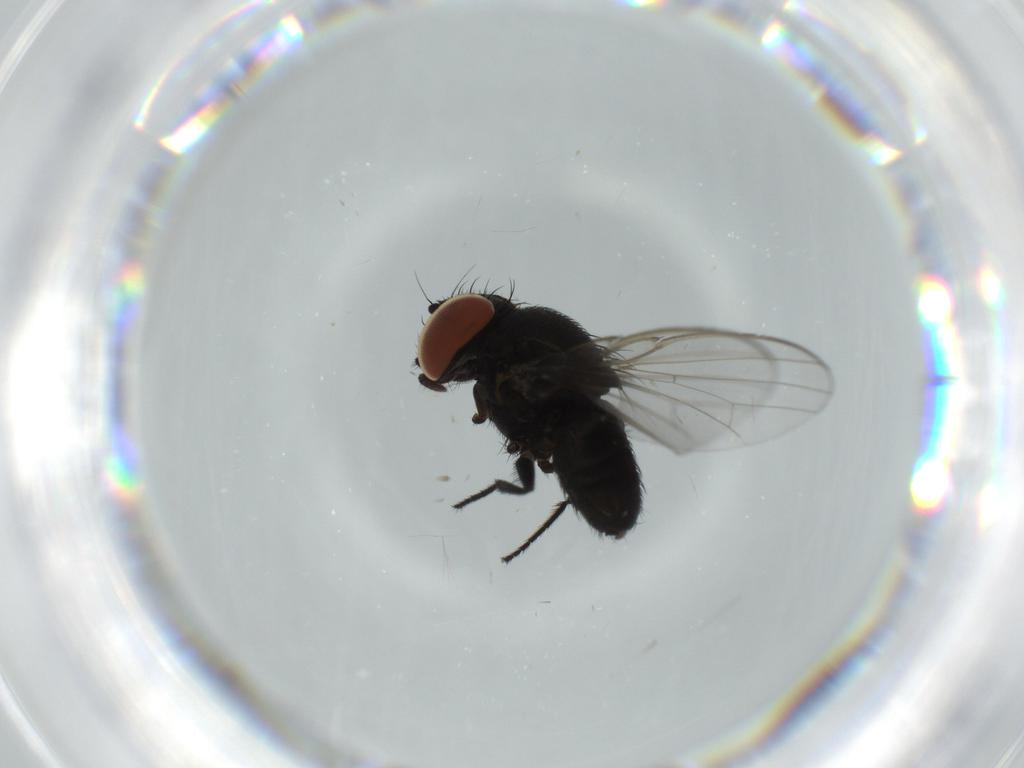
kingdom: Animalia
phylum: Arthropoda
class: Insecta
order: Diptera
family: Milichiidae
